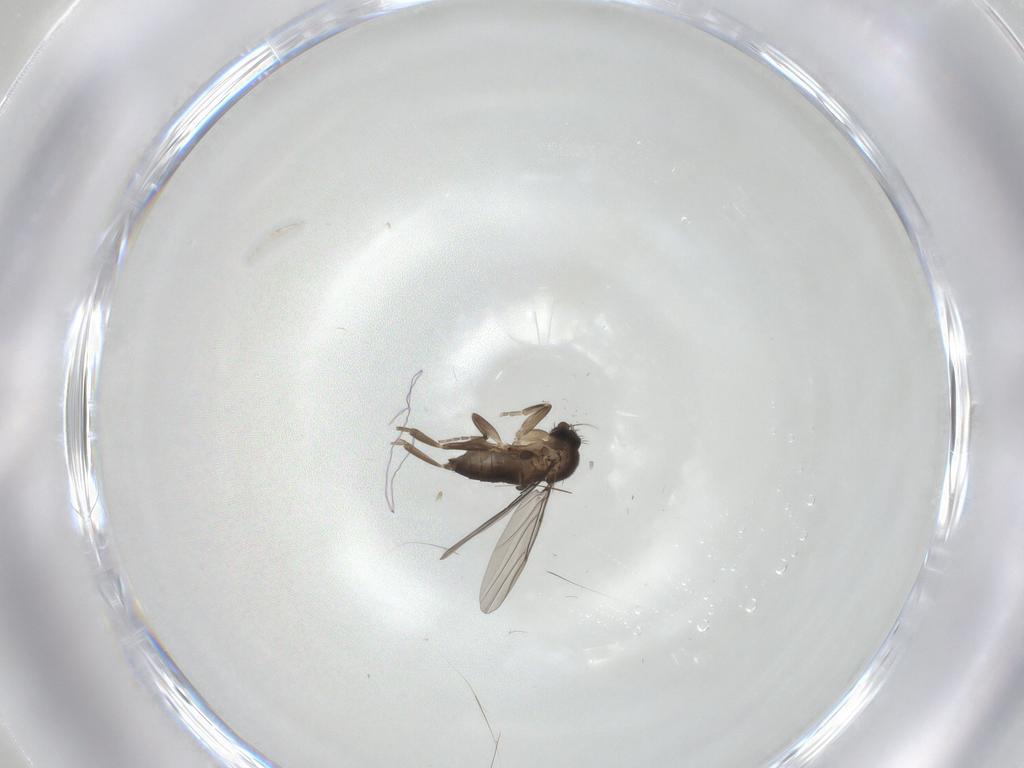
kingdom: Animalia
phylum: Arthropoda
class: Insecta
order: Diptera
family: Phoridae
